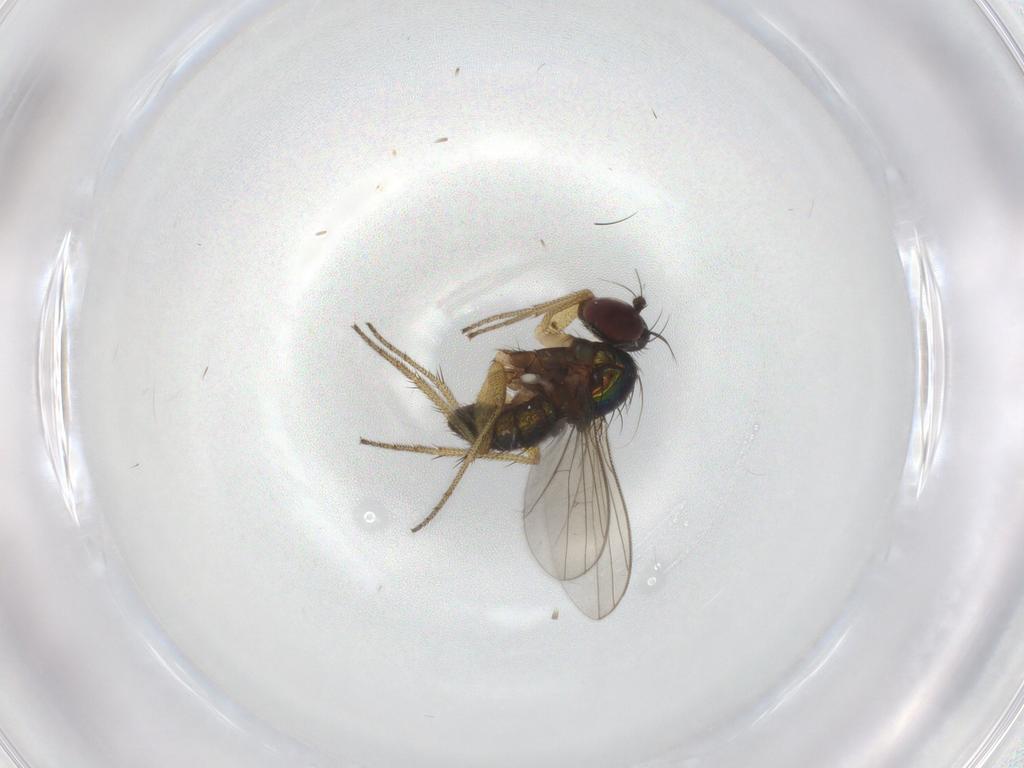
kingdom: Animalia
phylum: Arthropoda
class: Insecta
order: Diptera
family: Chironomidae
